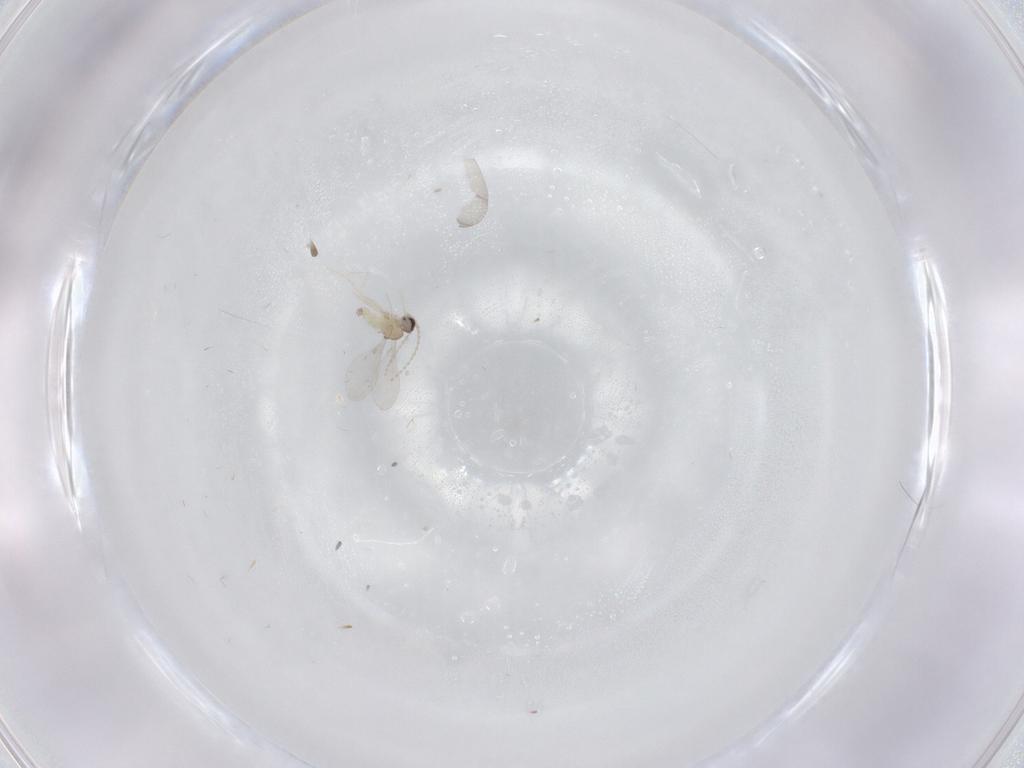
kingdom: Animalia
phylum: Arthropoda
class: Insecta
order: Diptera
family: Cecidomyiidae
